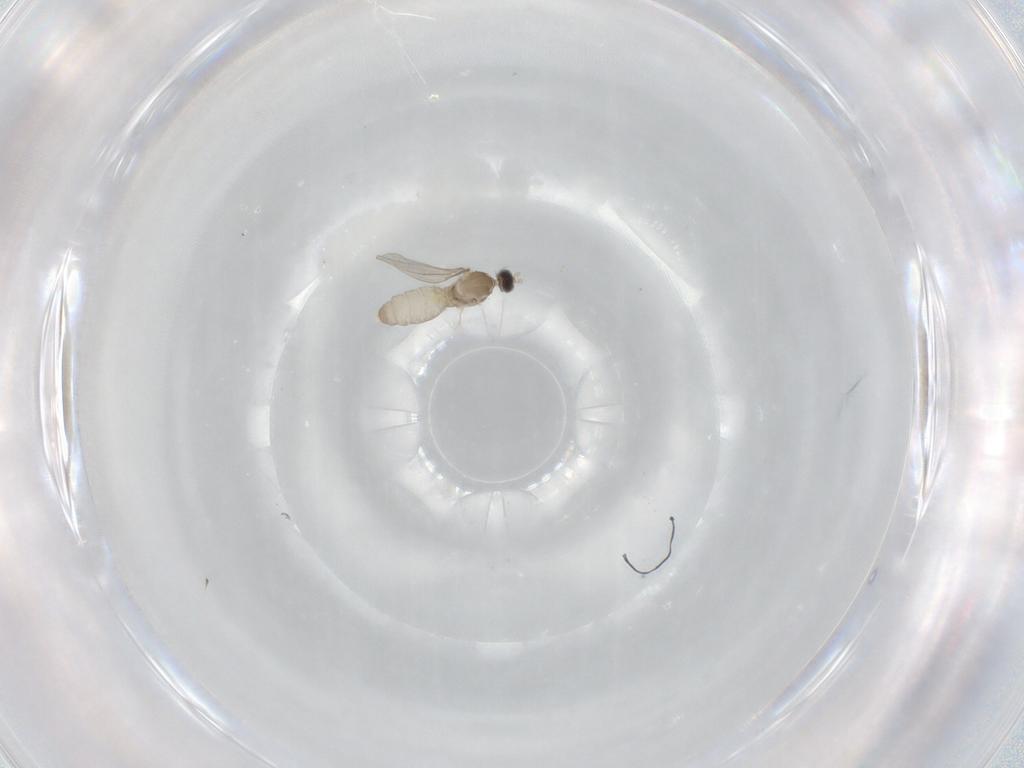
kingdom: Animalia
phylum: Arthropoda
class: Insecta
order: Diptera
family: Cecidomyiidae
